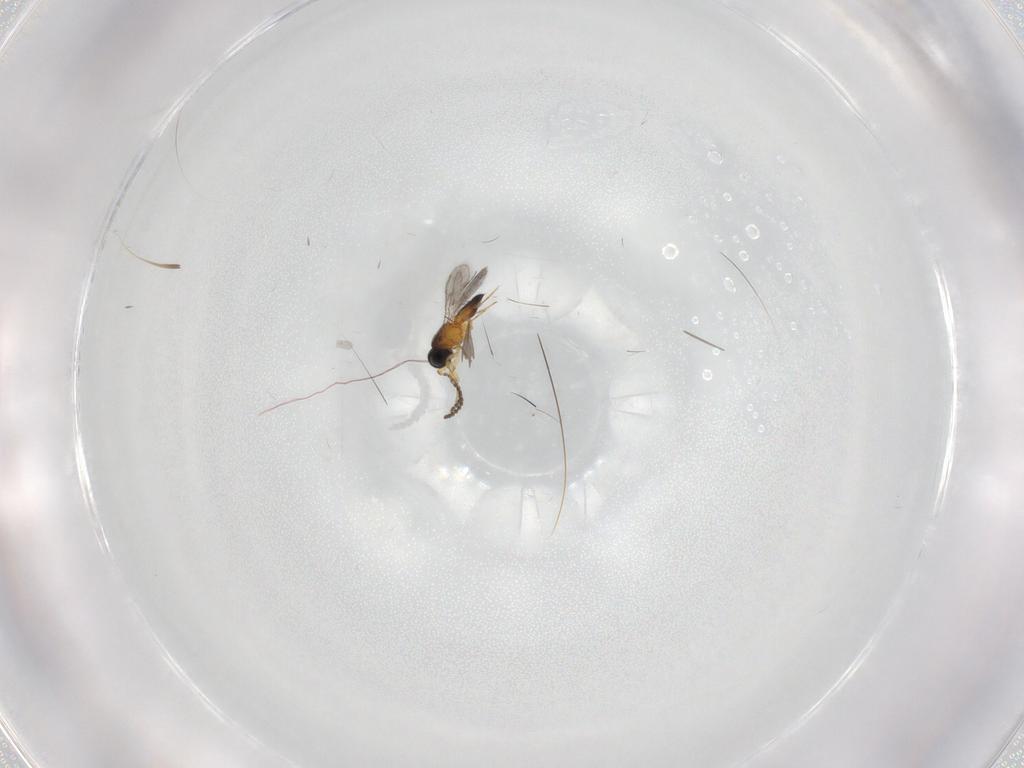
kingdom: Animalia
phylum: Arthropoda
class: Insecta
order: Hymenoptera
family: Scelionidae
